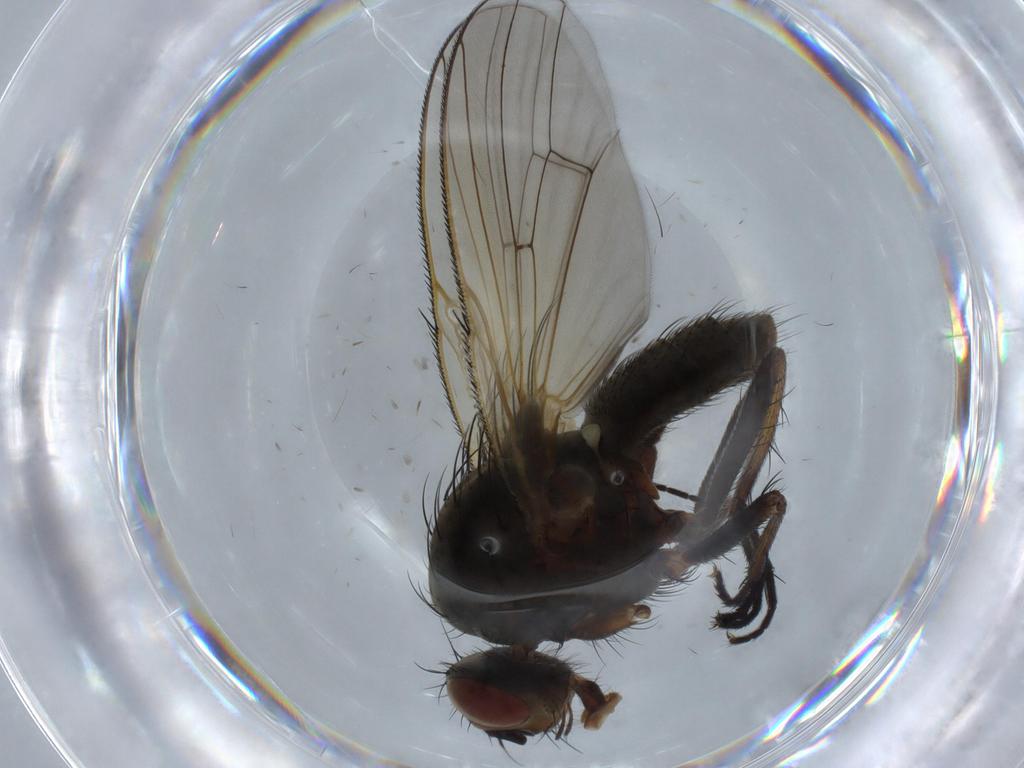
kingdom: Animalia
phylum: Arthropoda
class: Insecta
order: Diptera
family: Anthomyiidae
